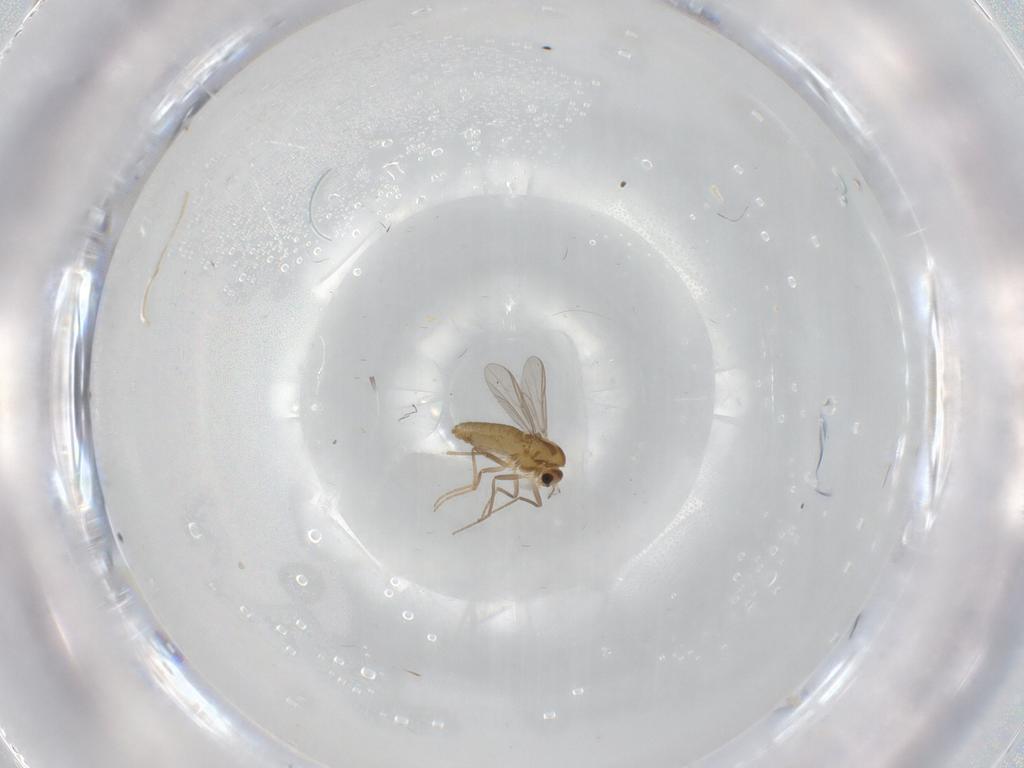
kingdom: Animalia
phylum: Arthropoda
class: Insecta
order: Diptera
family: Chironomidae
